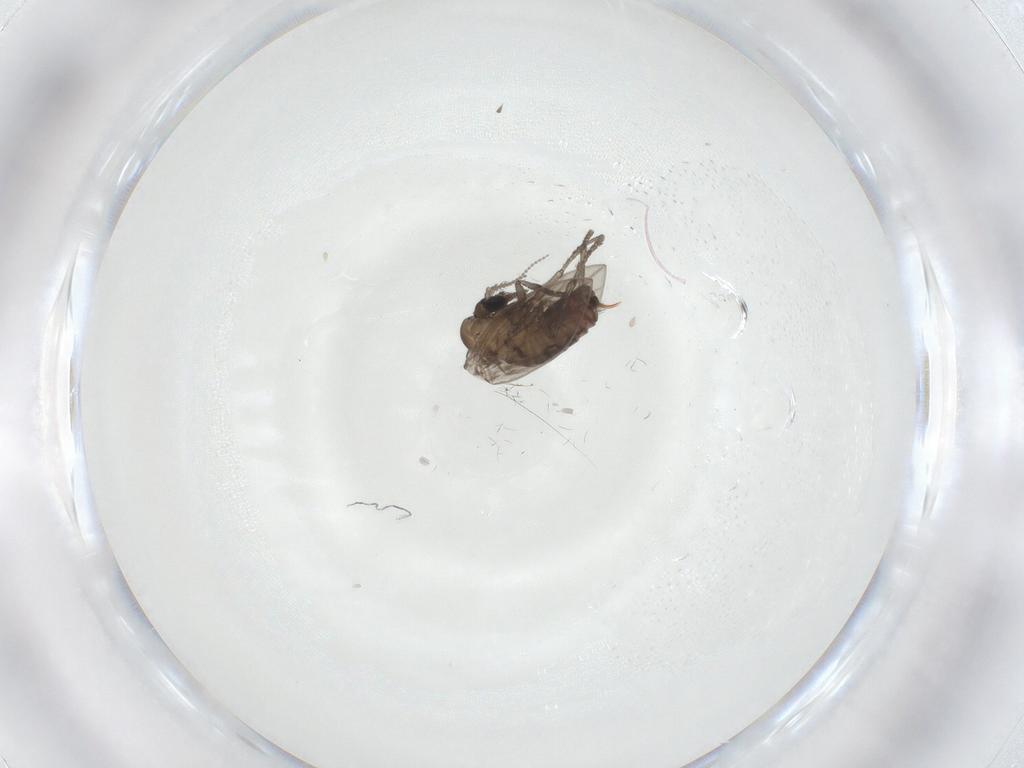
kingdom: Animalia
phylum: Arthropoda
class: Insecta
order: Diptera
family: Psychodidae
